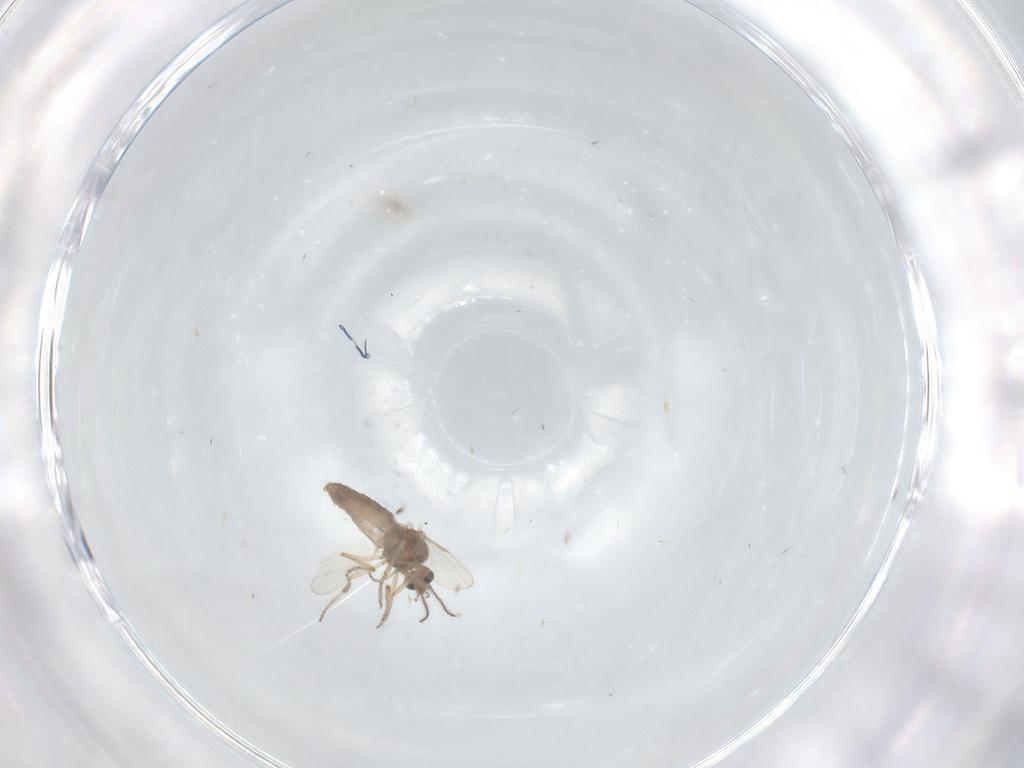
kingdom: Animalia
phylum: Arthropoda
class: Insecta
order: Diptera
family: Ceratopogonidae
